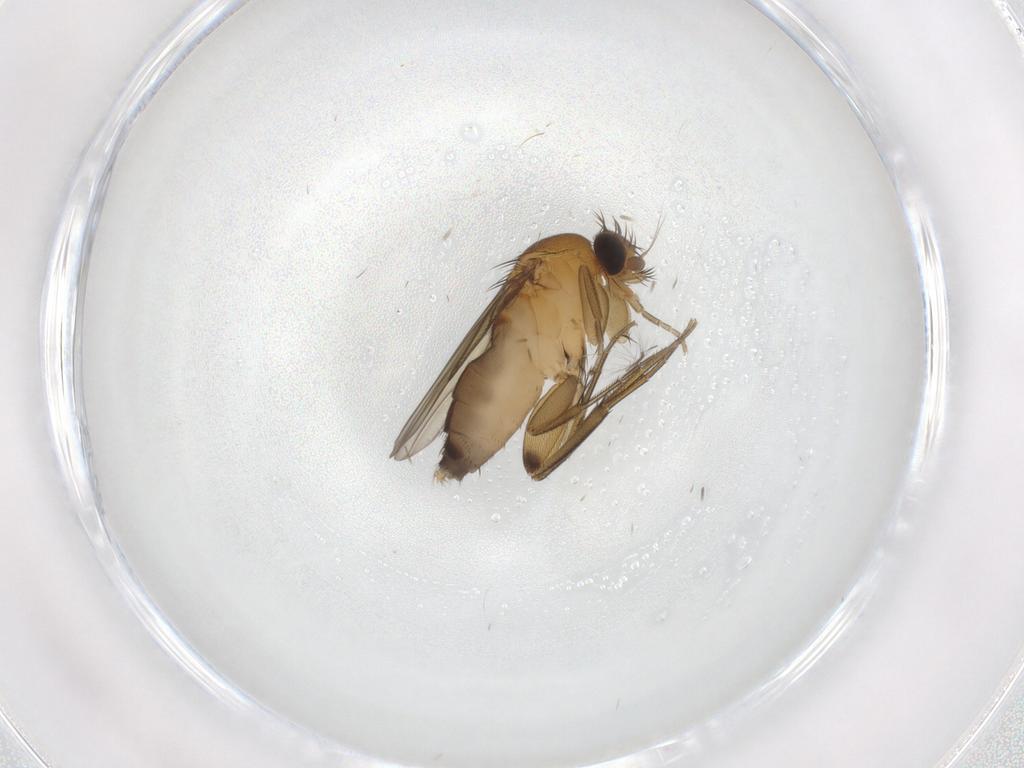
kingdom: Animalia
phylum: Arthropoda
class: Insecta
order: Diptera
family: Phoridae
